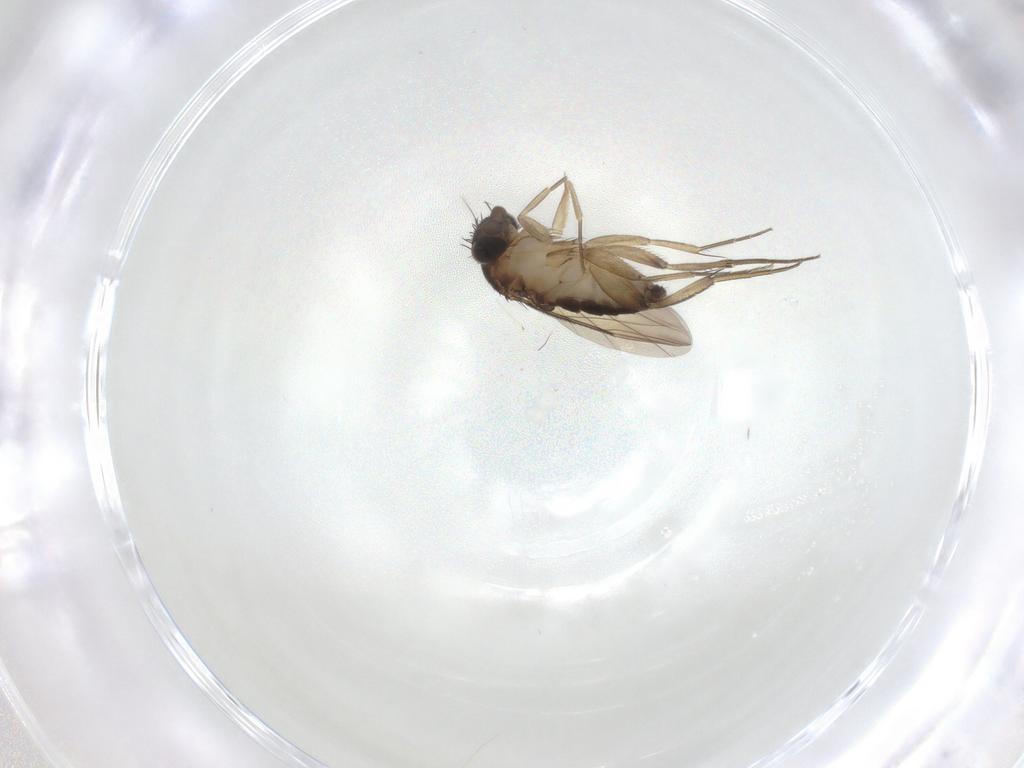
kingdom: Animalia
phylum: Arthropoda
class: Insecta
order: Diptera
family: Phoridae
